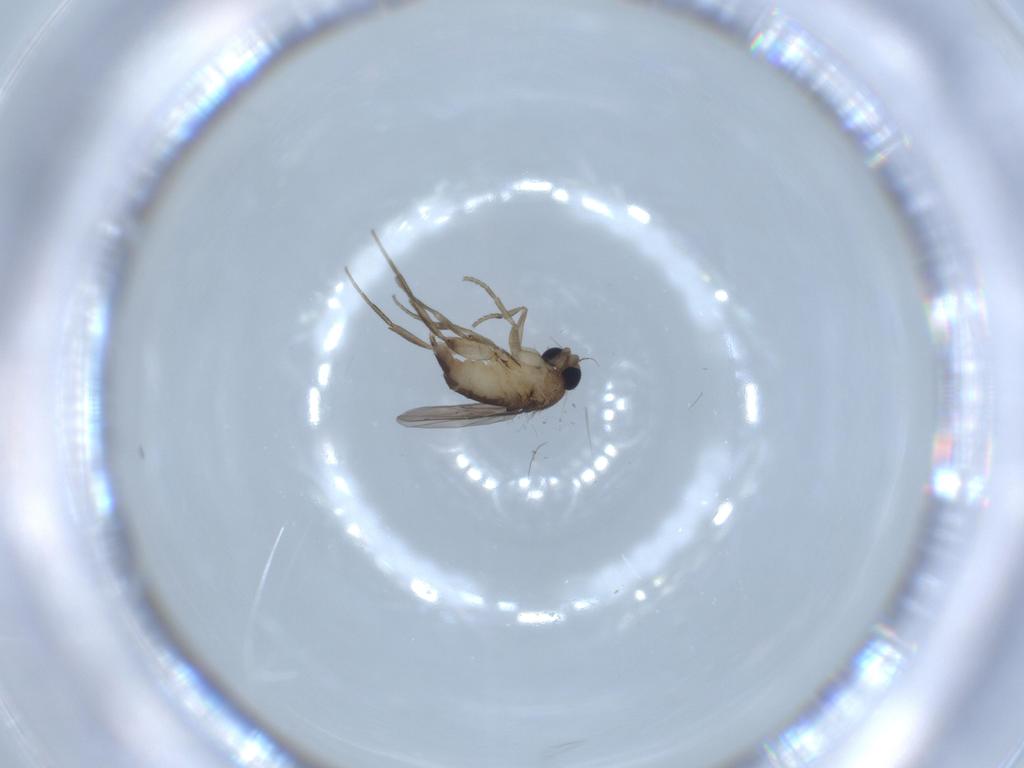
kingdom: Animalia
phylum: Arthropoda
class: Insecta
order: Diptera
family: Phoridae
